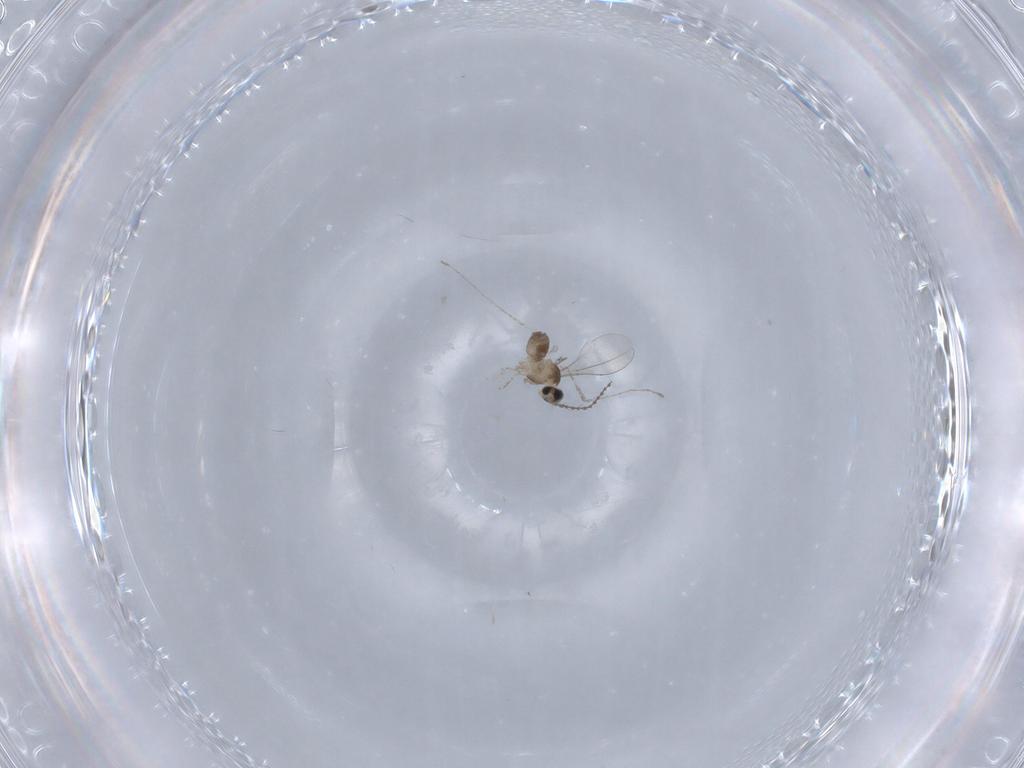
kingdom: Animalia
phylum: Arthropoda
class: Insecta
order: Diptera
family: Cecidomyiidae
